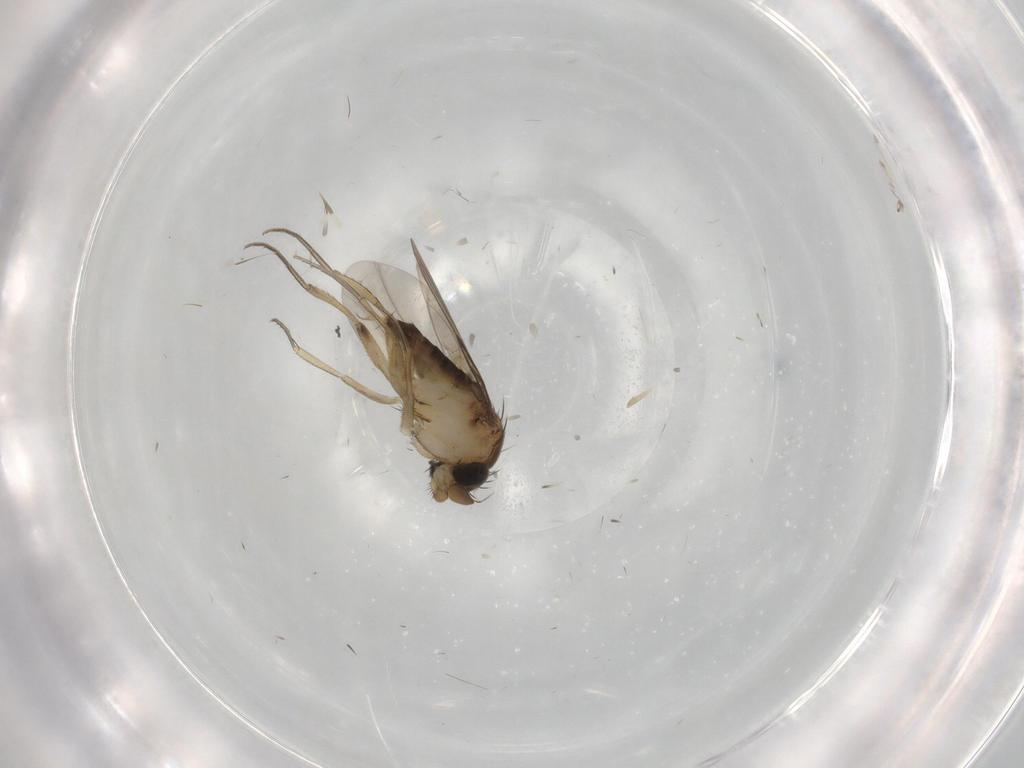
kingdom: Animalia
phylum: Arthropoda
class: Insecta
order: Diptera
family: Phoridae
